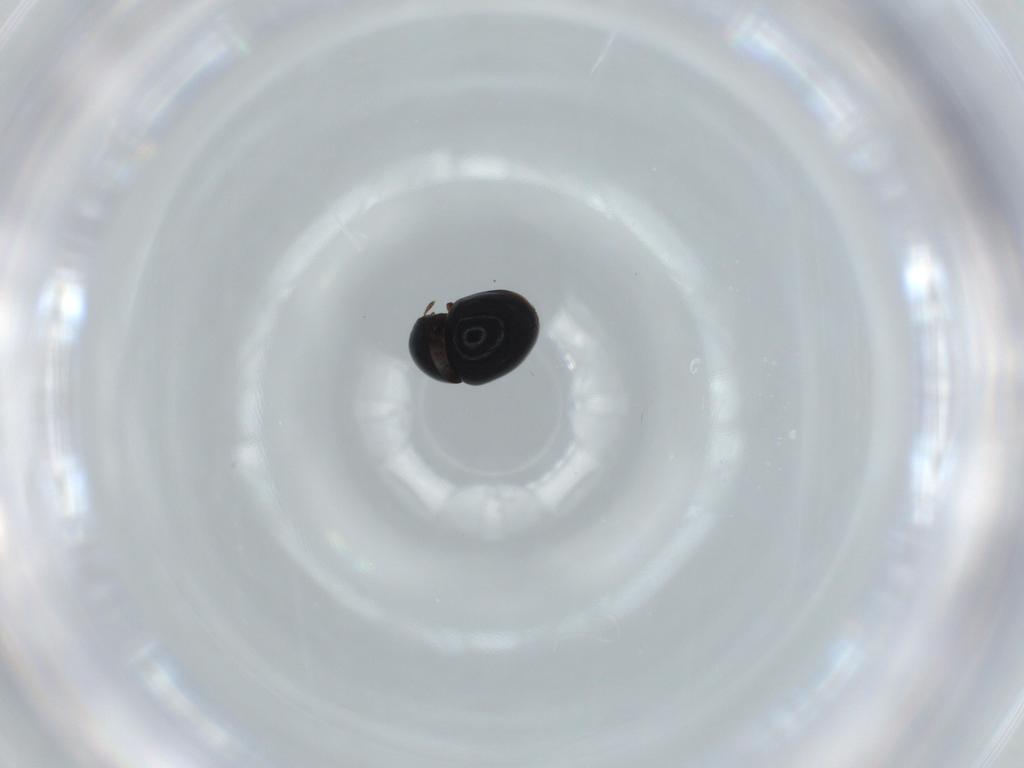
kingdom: Animalia
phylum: Arthropoda
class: Insecta
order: Coleoptera
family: Cybocephalidae
